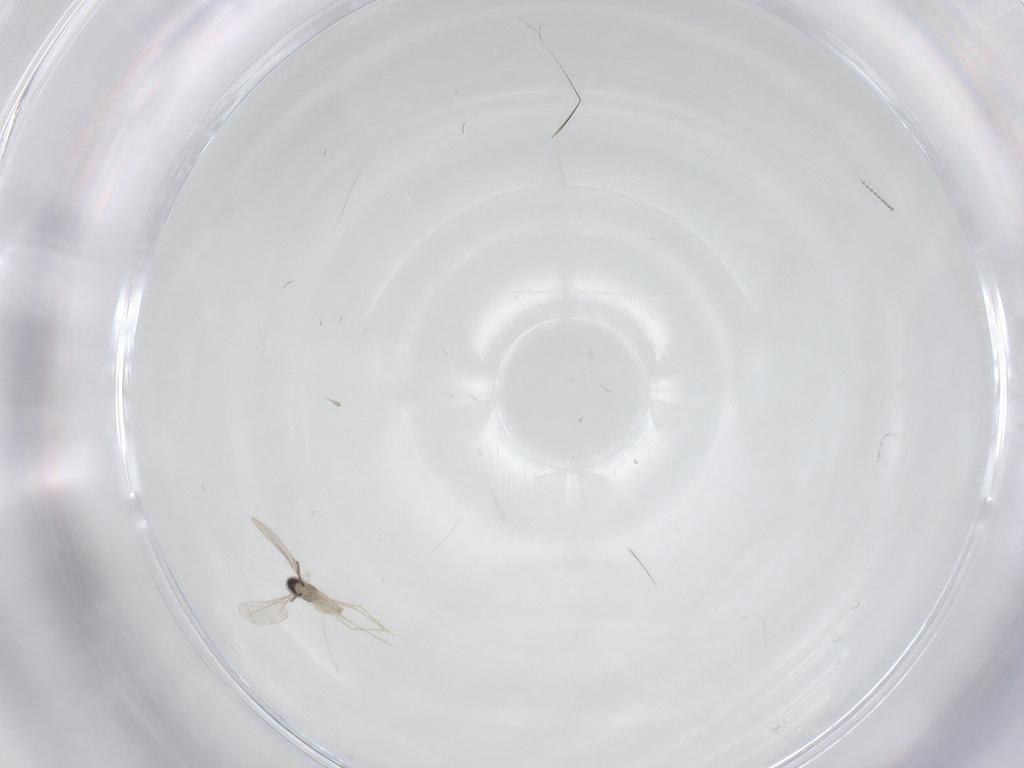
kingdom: Animalia
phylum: Arthropoda
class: Insecta
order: Diptera
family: Cecidomyiidae
